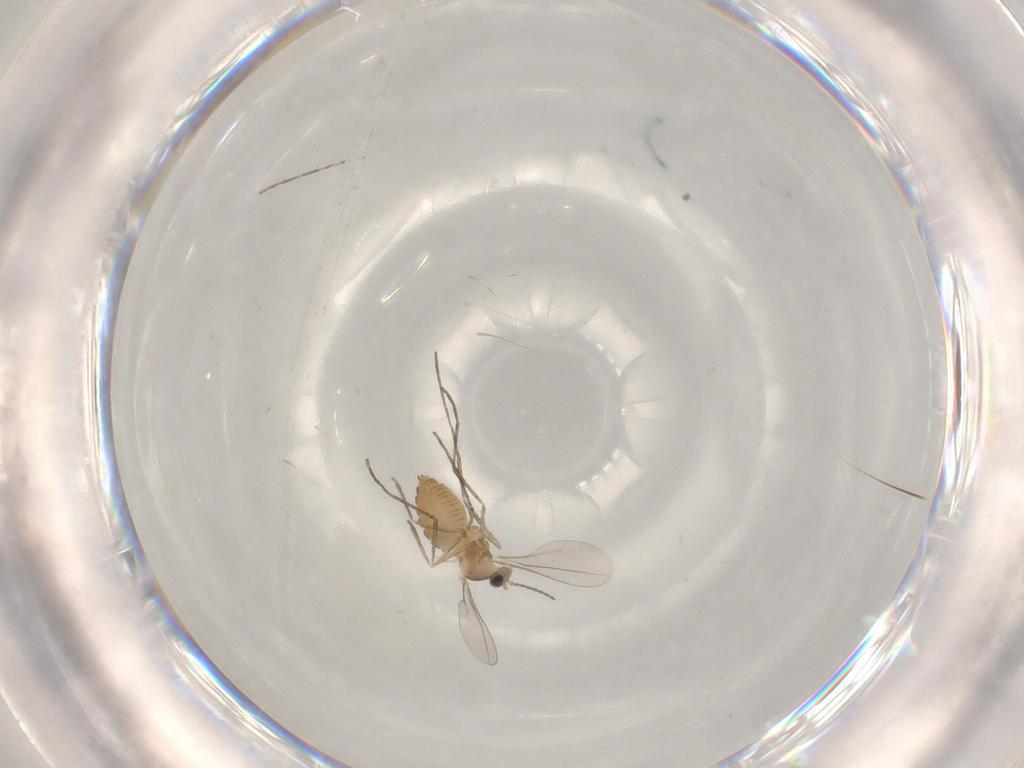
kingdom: Animalia
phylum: Arthropoda
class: Insecta
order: Diptera
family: Cecidomyiidae
